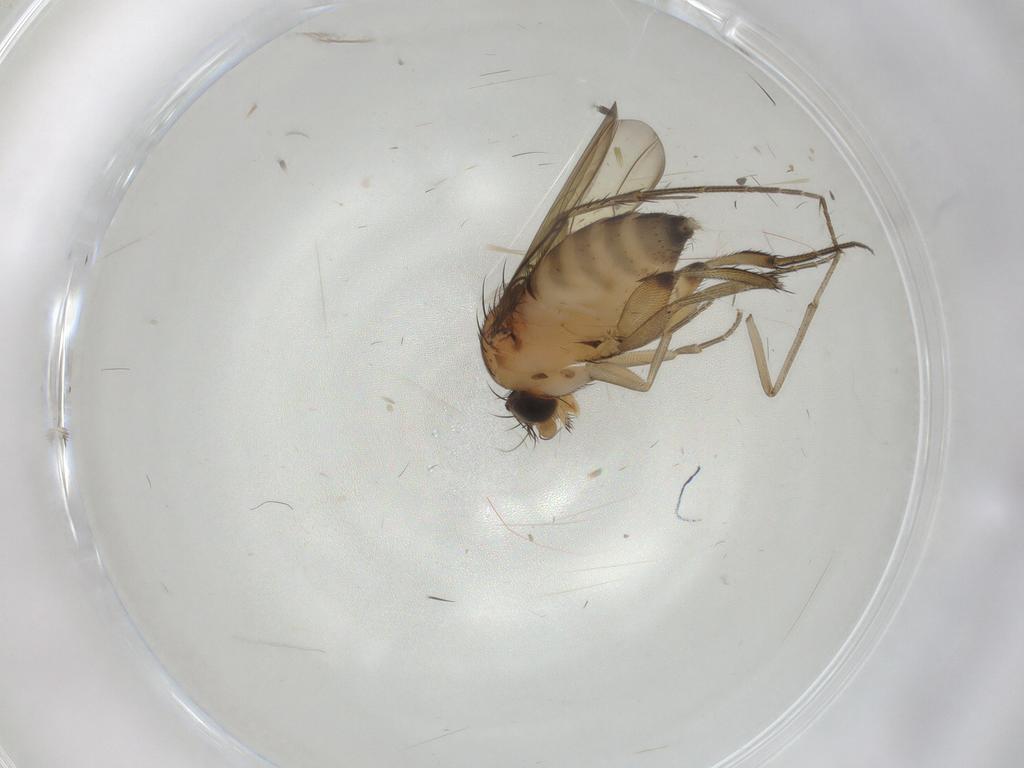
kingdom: Animalia
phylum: Arthropoda
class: Insecta
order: Diptera
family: Phoridae
